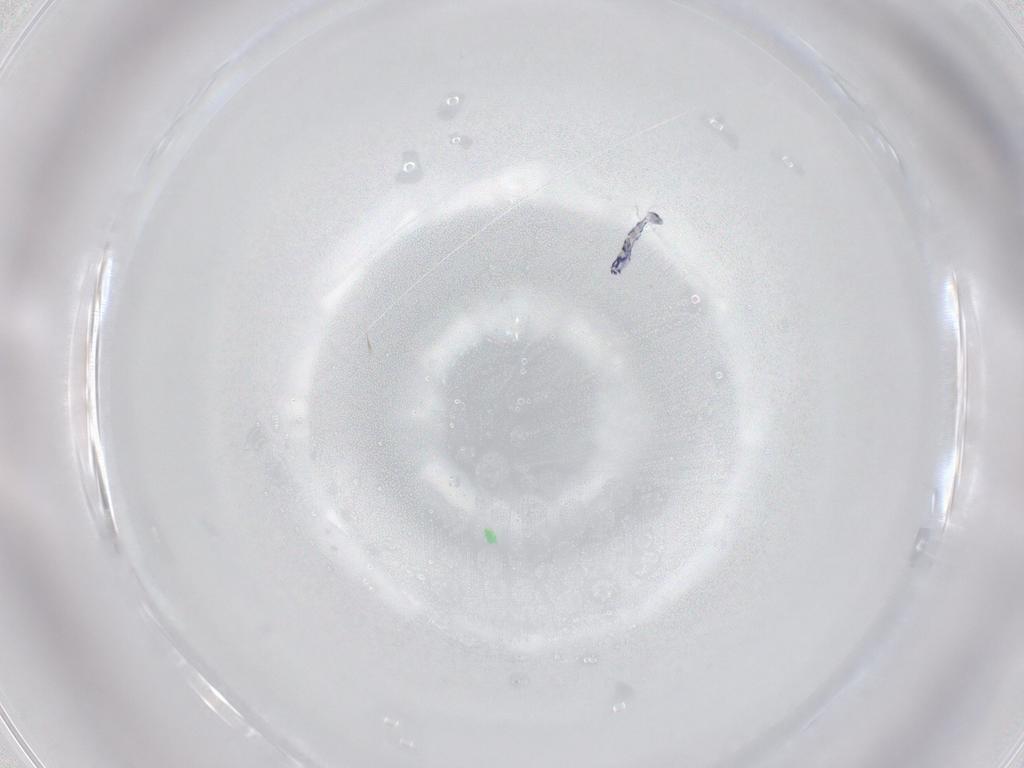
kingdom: Animalia
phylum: Arthropoda
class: Collembola
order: Entomobryomorpha
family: Entomobryidae
